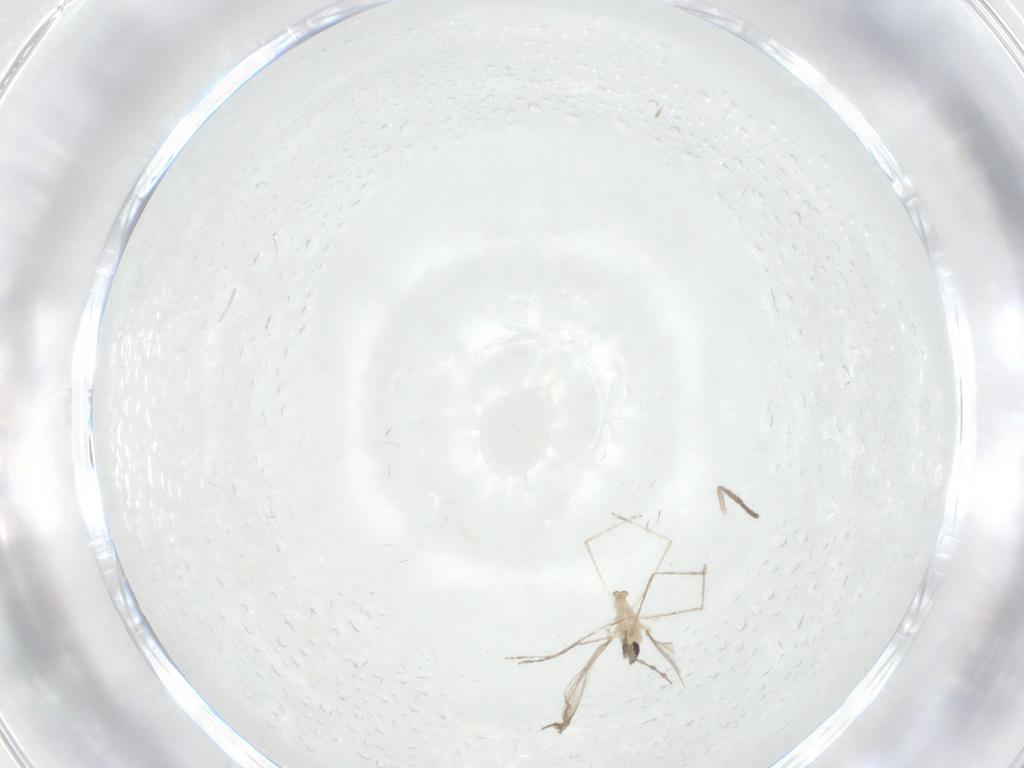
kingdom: Animalia
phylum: Arthropoda
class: Insecta
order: Diptera
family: Psychodidae
